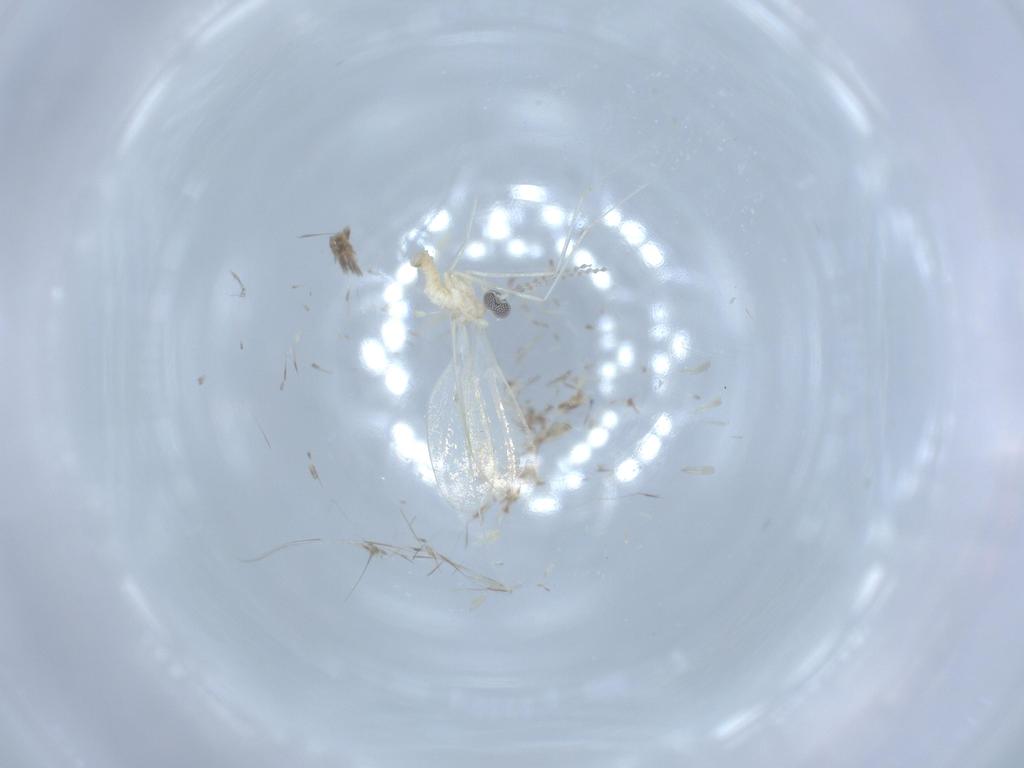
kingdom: Animalia
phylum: Arthropoda
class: Insecta
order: Diptera
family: Cecidomyiidae
